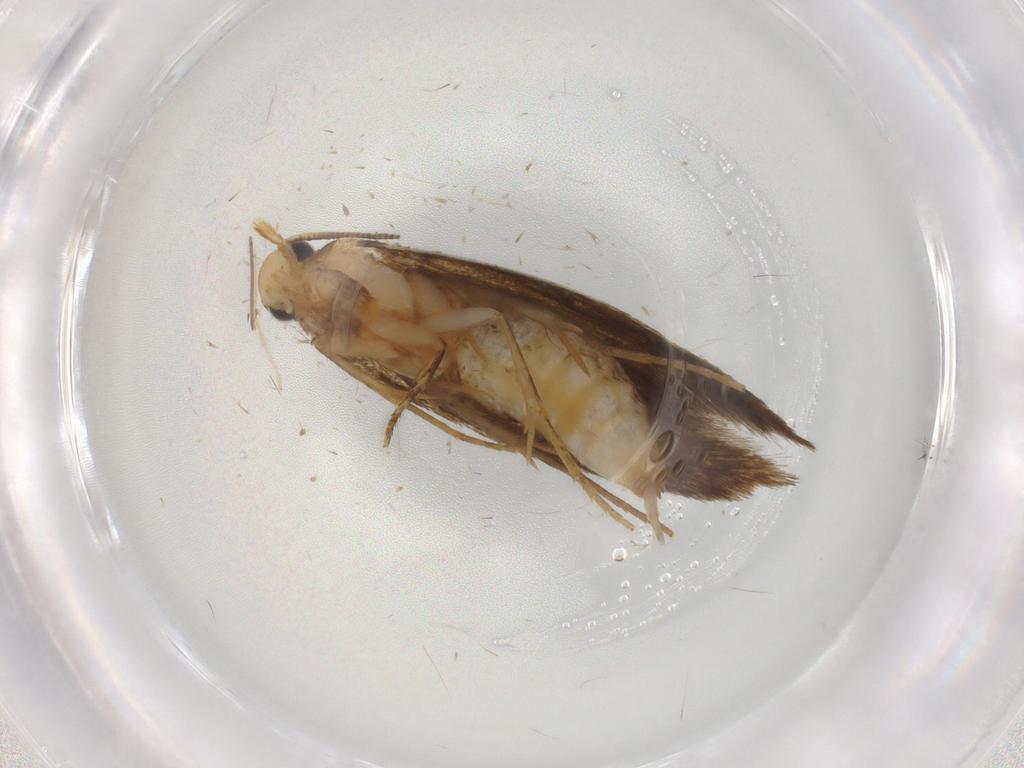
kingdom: Animalia
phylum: Arthropoda
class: Insecta
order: Lepidoptera
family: Tineidae
